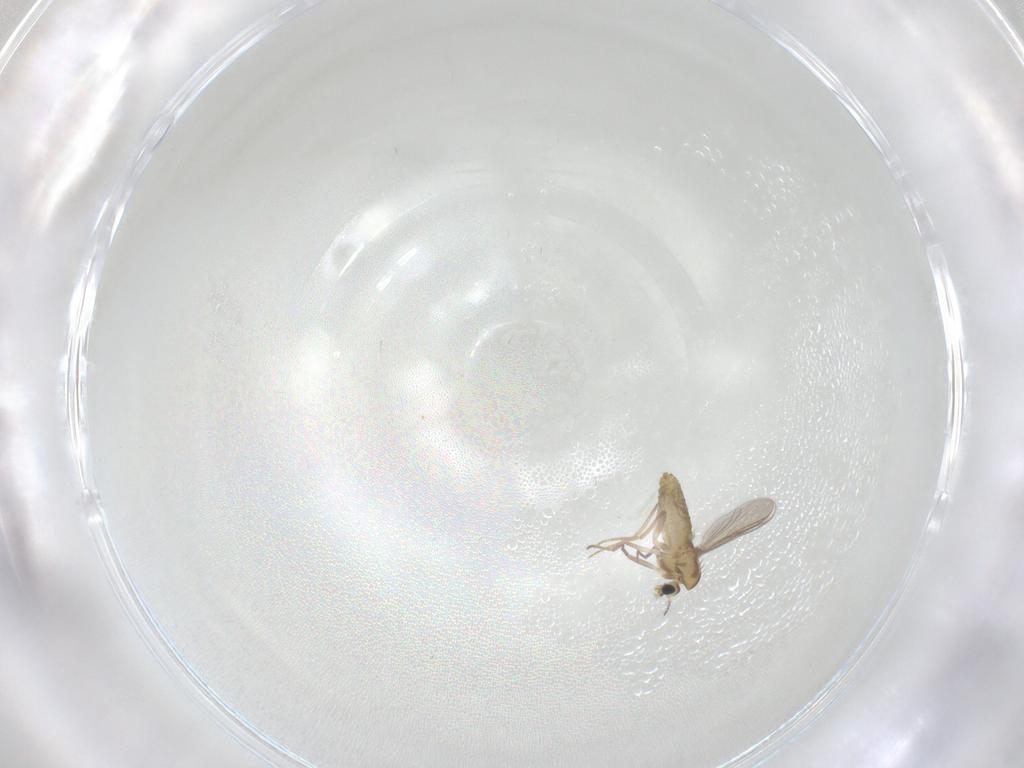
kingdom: Animalia
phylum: Arthropoda
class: Insecta
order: Diptera
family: Chironomidae
